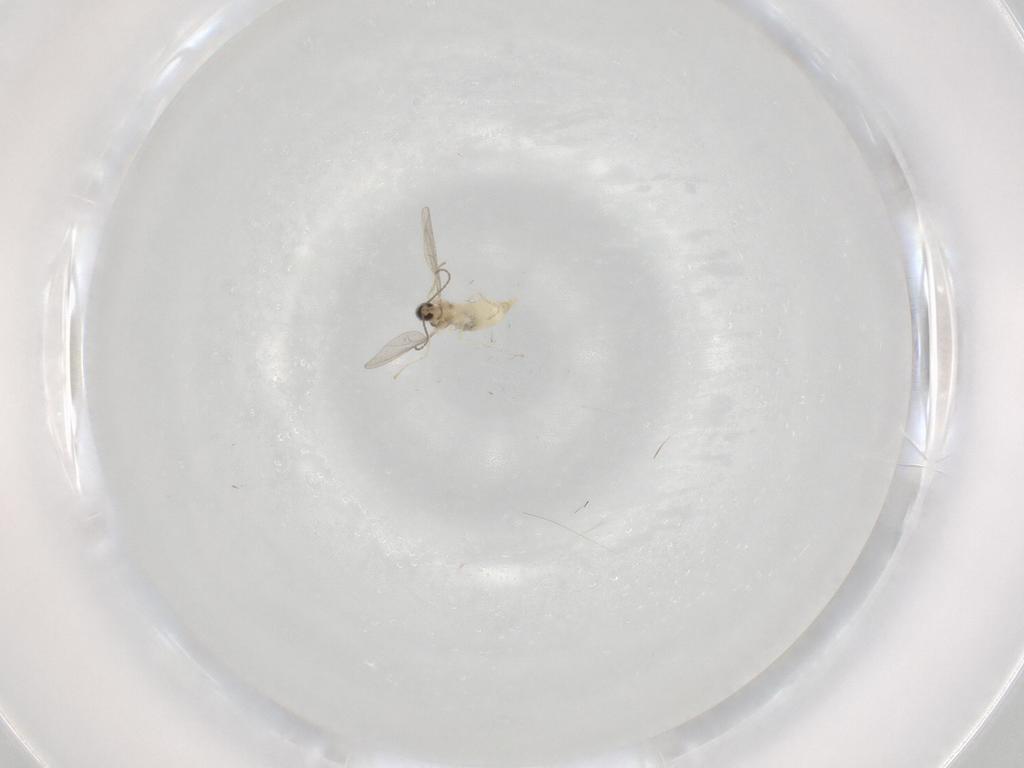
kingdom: Animalia
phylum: Arthropoda
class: Insecta
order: Diptera
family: Cecidomyiidae
